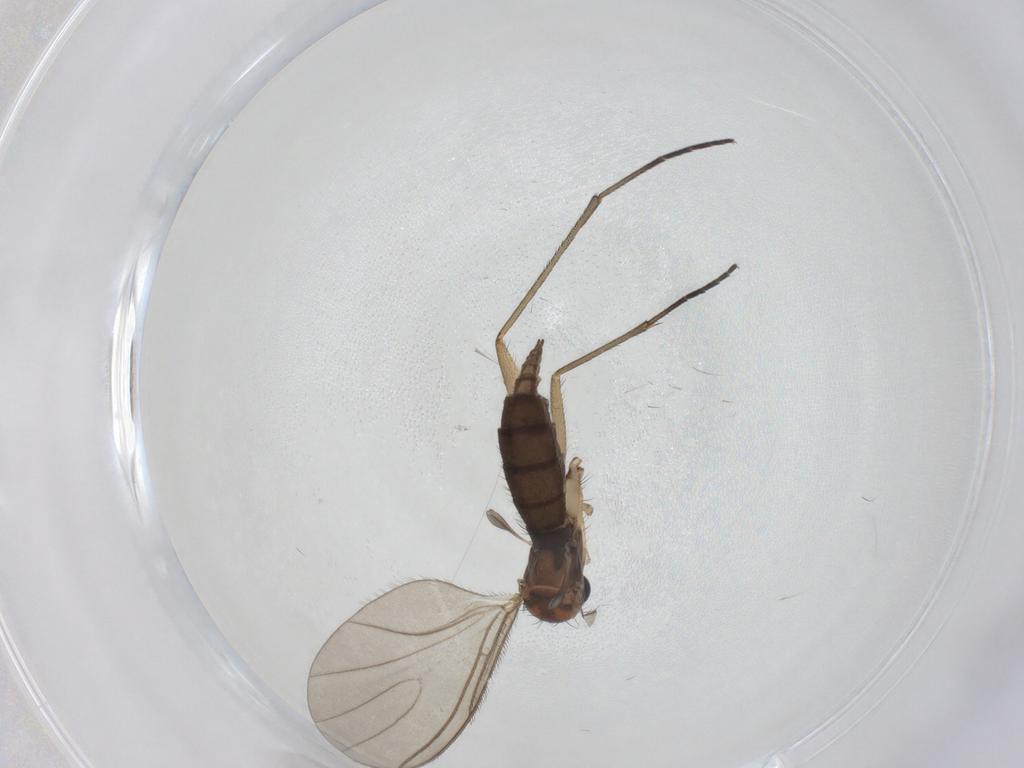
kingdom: Animalia
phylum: Arthropoda
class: Insecta
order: Diptera
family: Sciaridae
